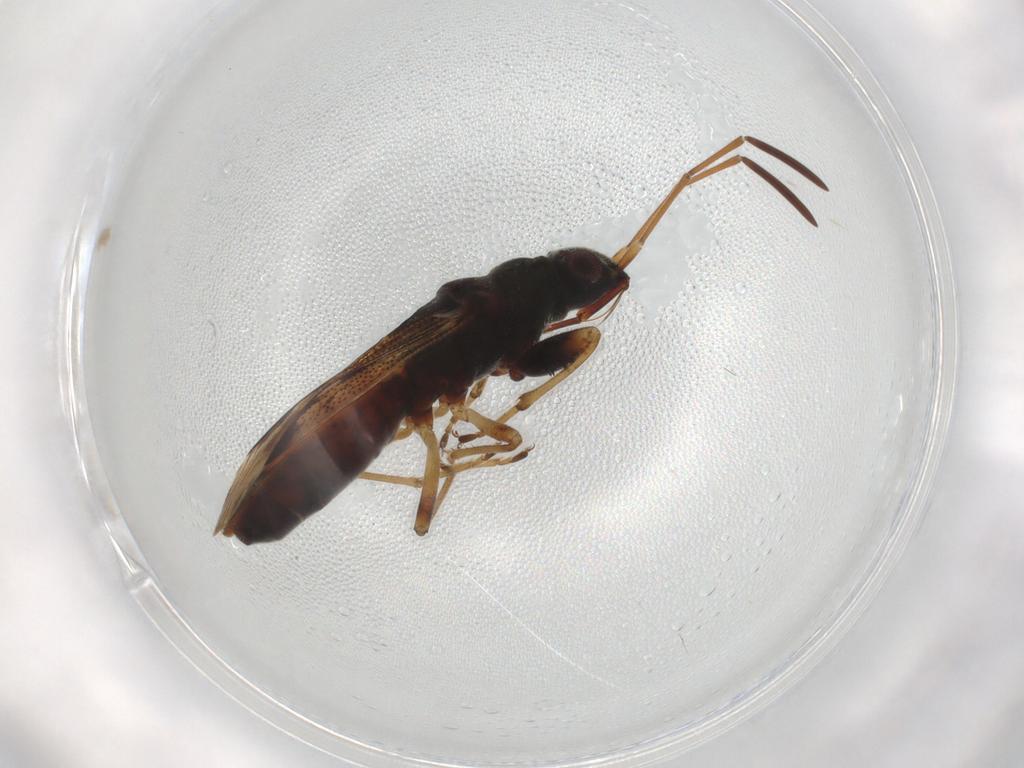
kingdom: Animalia
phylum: Arthropoda
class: Insecta
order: Hemiptera
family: Rhyparochromidae
